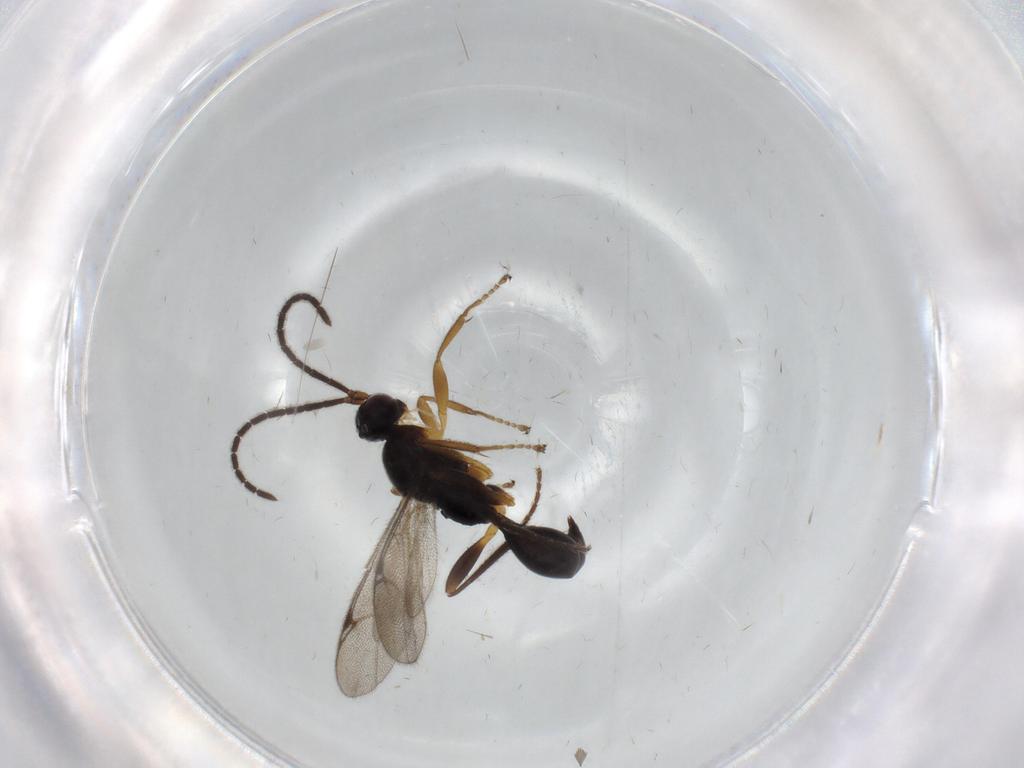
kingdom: Animalia
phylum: Arthropoda
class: Insecta
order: Hymenoptera
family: Proctotrupidae
